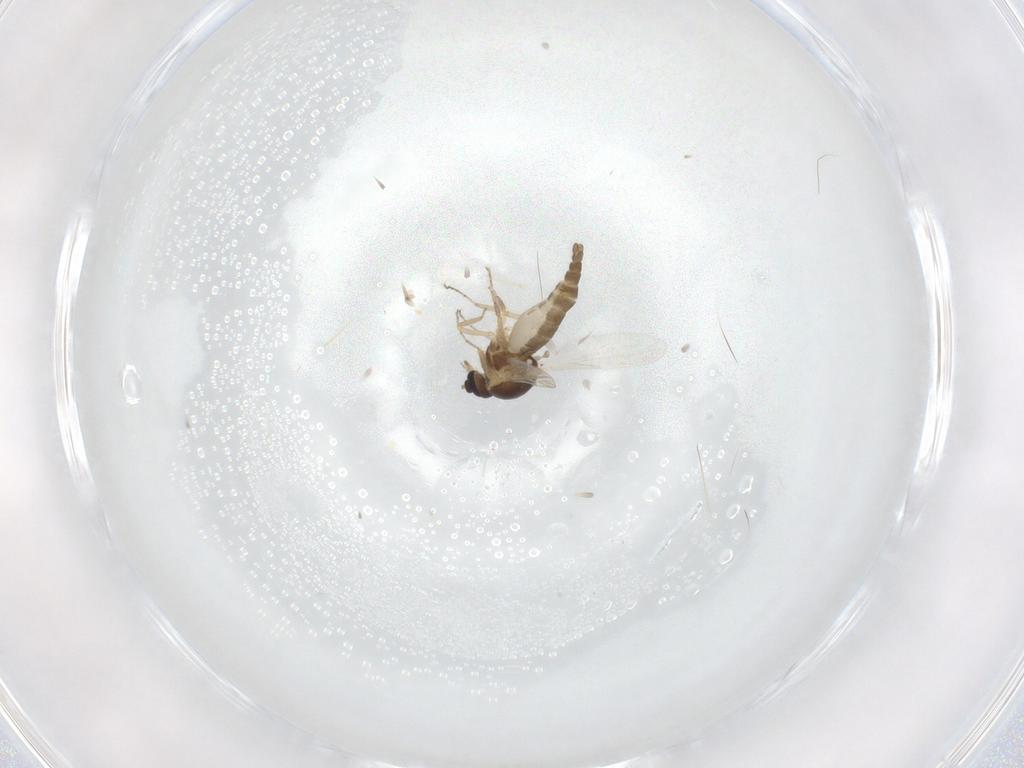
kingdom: Animalia
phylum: Arthropoda
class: Insecta
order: Diptera
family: Ceratopogonidae
